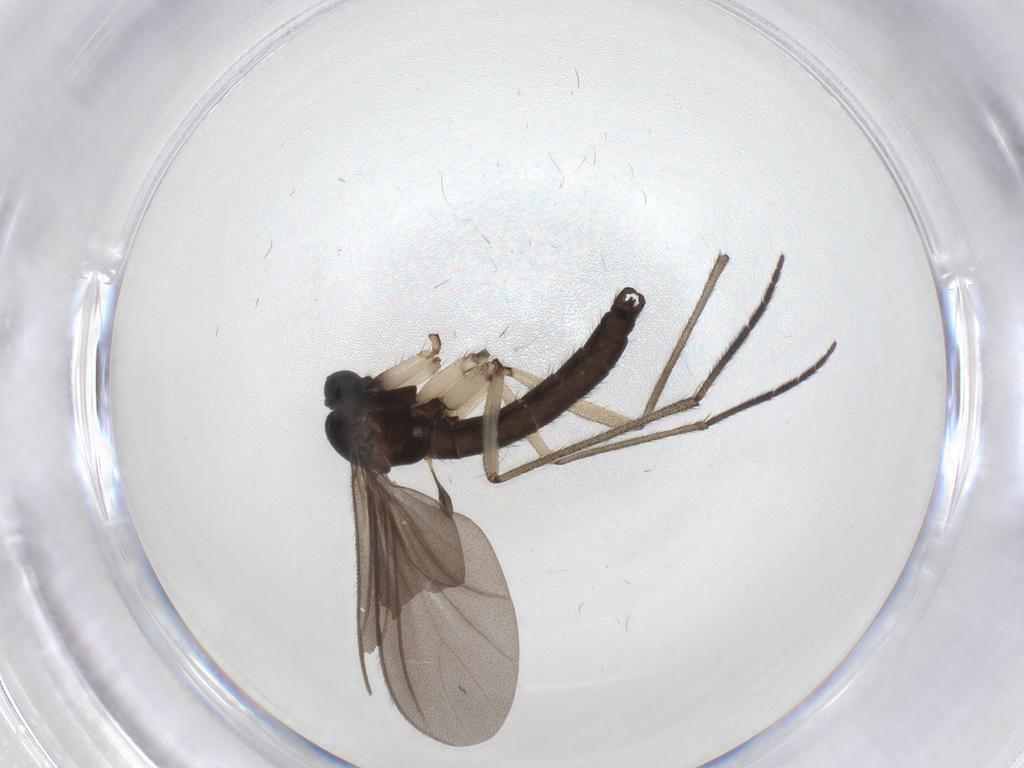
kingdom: Animalia
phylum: Arthropoda
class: Insecta
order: Diptera
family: Sciaridae
